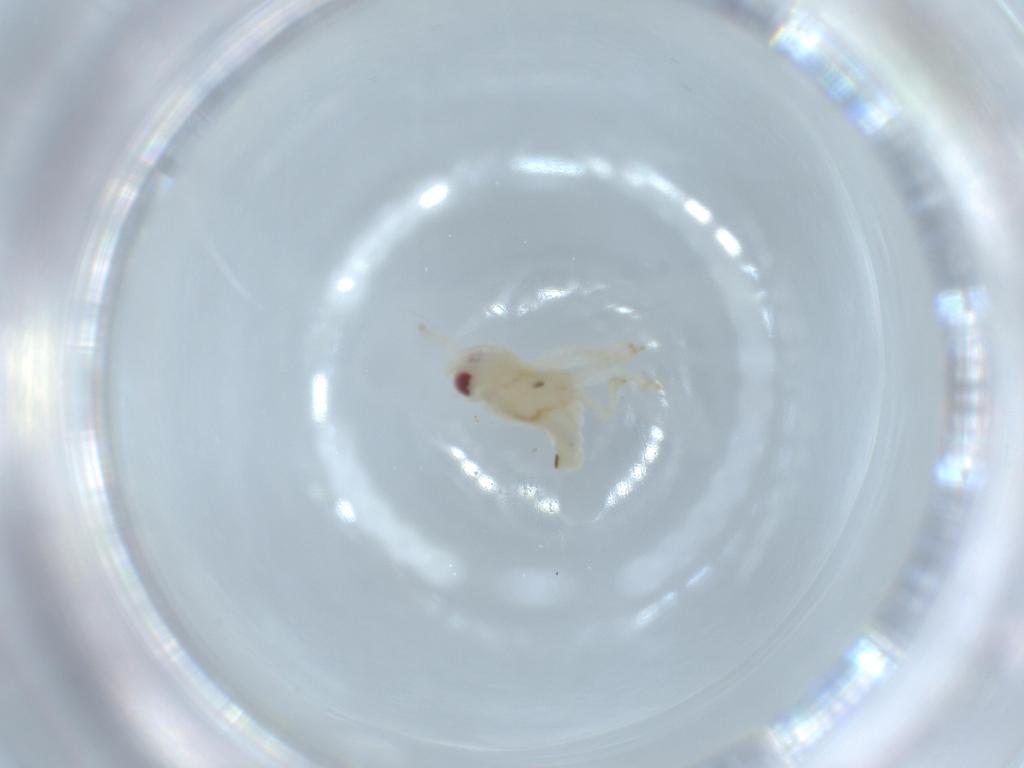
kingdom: Animalia
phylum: Arthropoda
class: Insecta
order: Hemiptera
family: Nogodinidae
